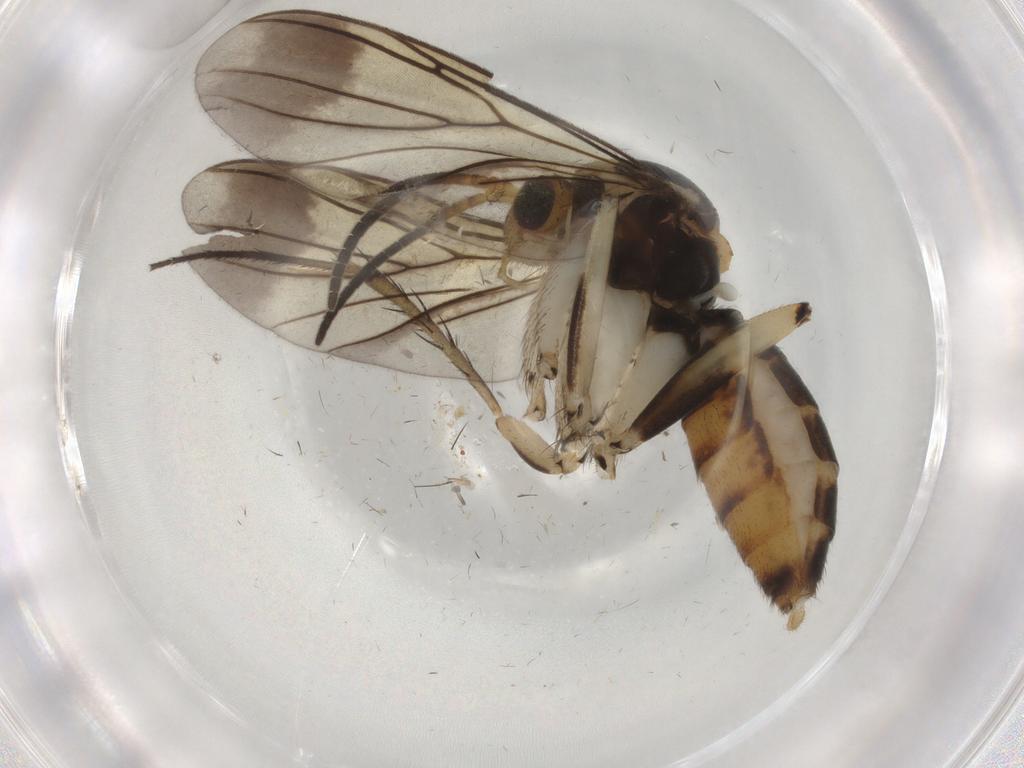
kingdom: Animalia
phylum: Arthropoda
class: Insecta
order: Diptera
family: Mycetophilidae
